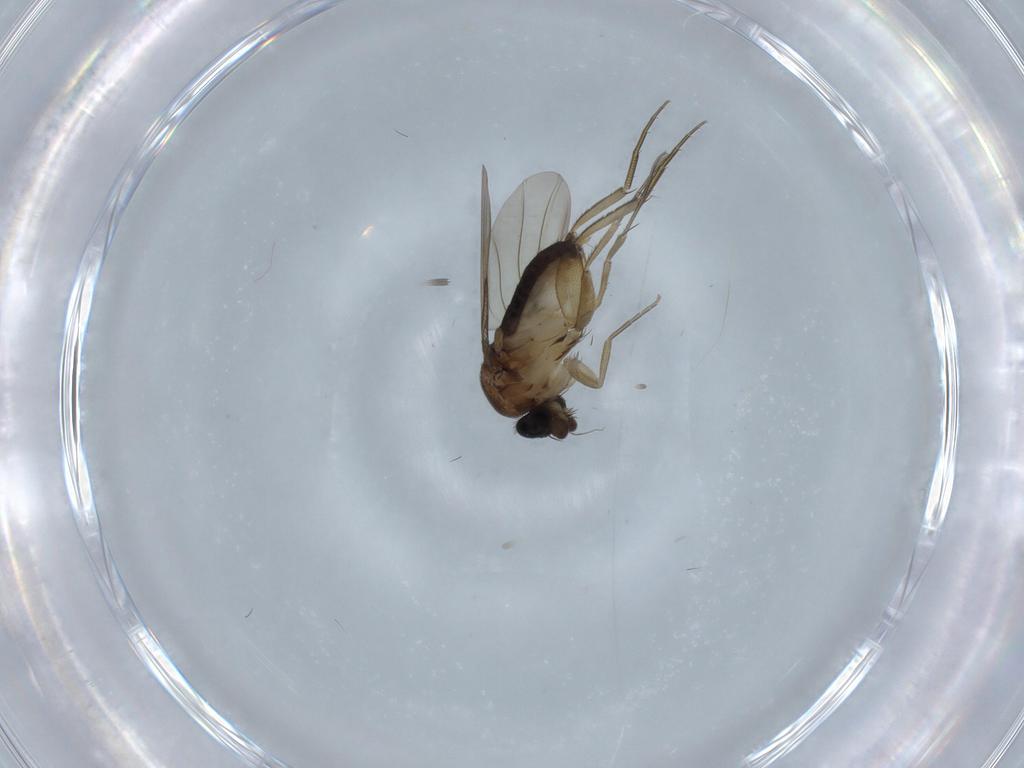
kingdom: Animalia
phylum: Arthropoda
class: Insecta
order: Diptera
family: Phoridae
